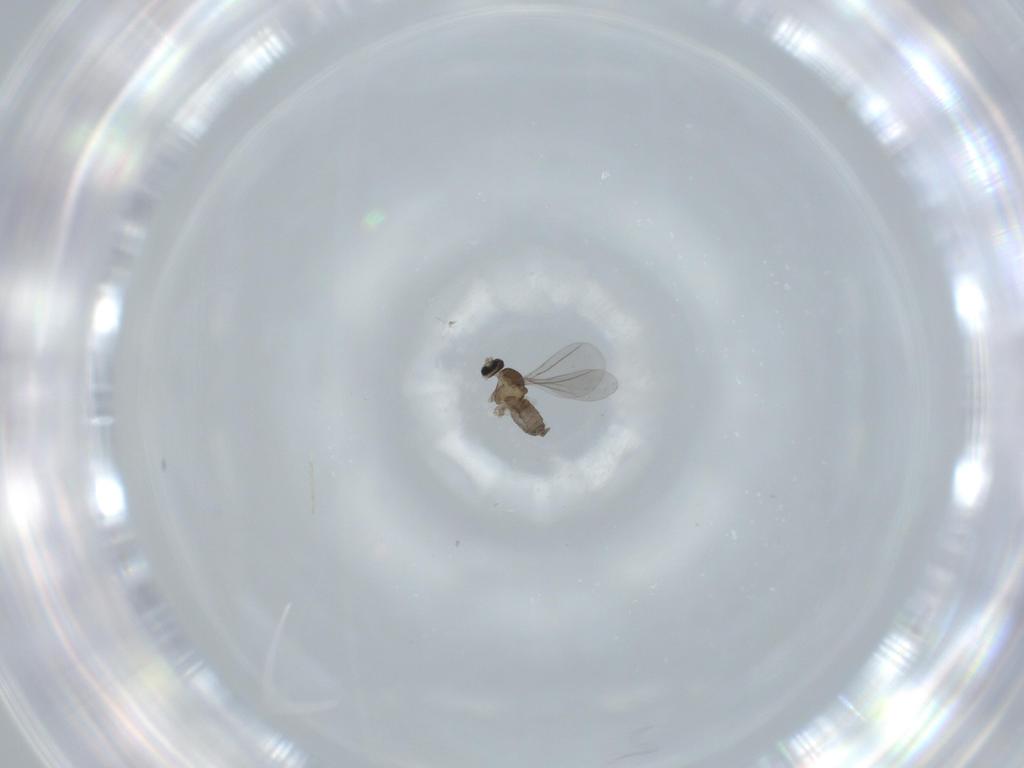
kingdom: Animalia
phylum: Arthropoda
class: Insecta
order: Diptera
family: Cecidomyiidae
